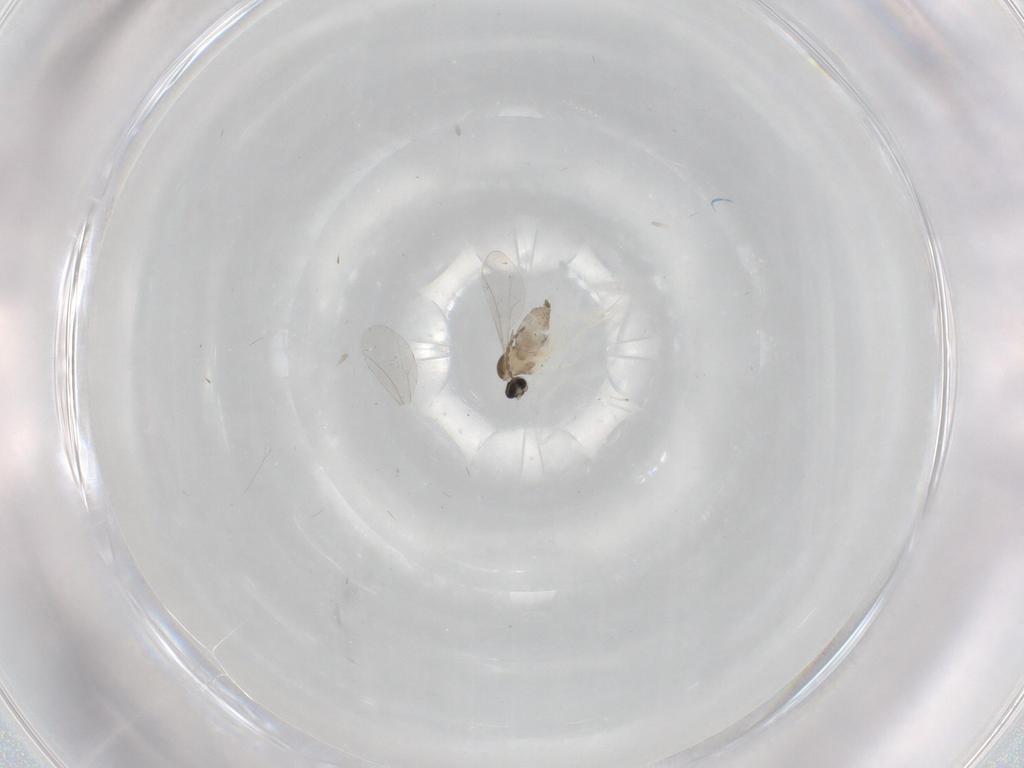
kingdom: Animalia
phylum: Arthropoda
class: Insecta
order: Diptera
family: Cecidomyiidae
